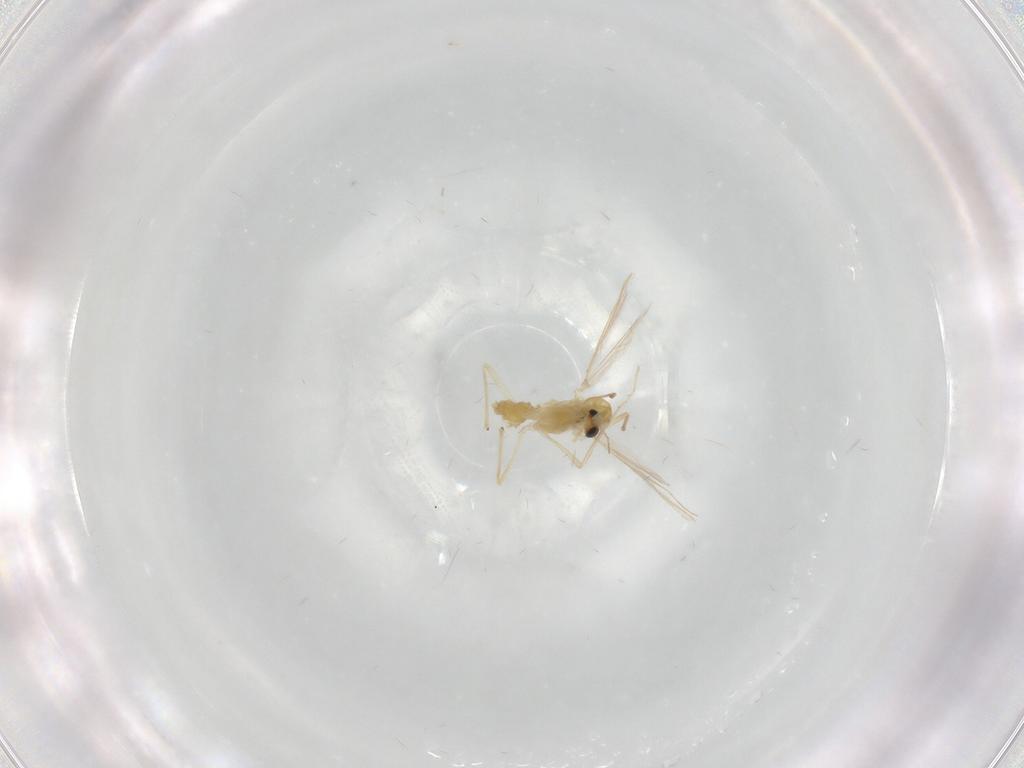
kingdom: Animalia
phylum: Arthropoda
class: Insecta
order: Diptera
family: Chironomidae
